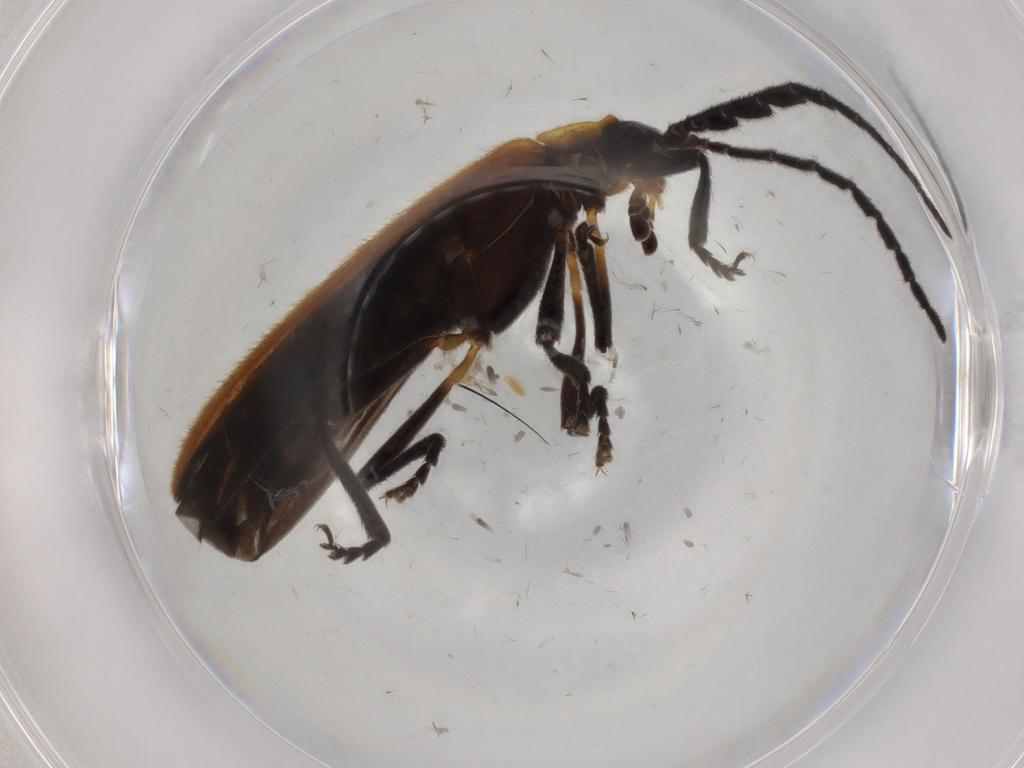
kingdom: Animalia
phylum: Arthropoda
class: Insecta
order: Coleoptera
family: Lycidae
